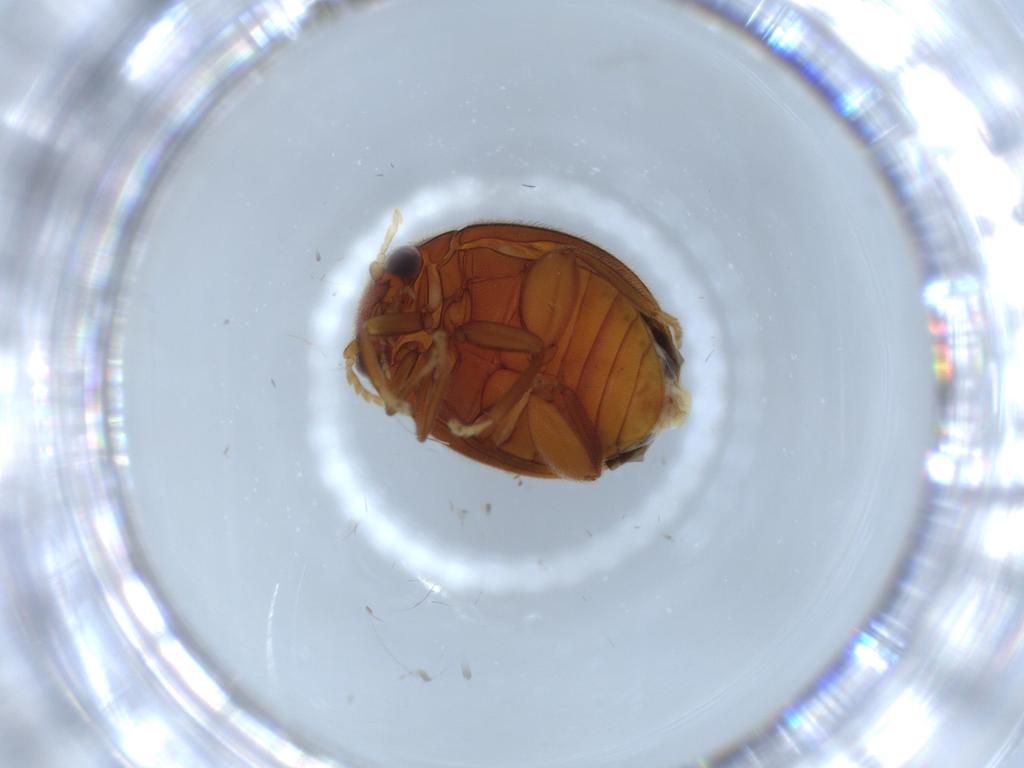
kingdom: Animalia
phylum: Arthropoda
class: Insecta
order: Coleoptera
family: Scirtidae
